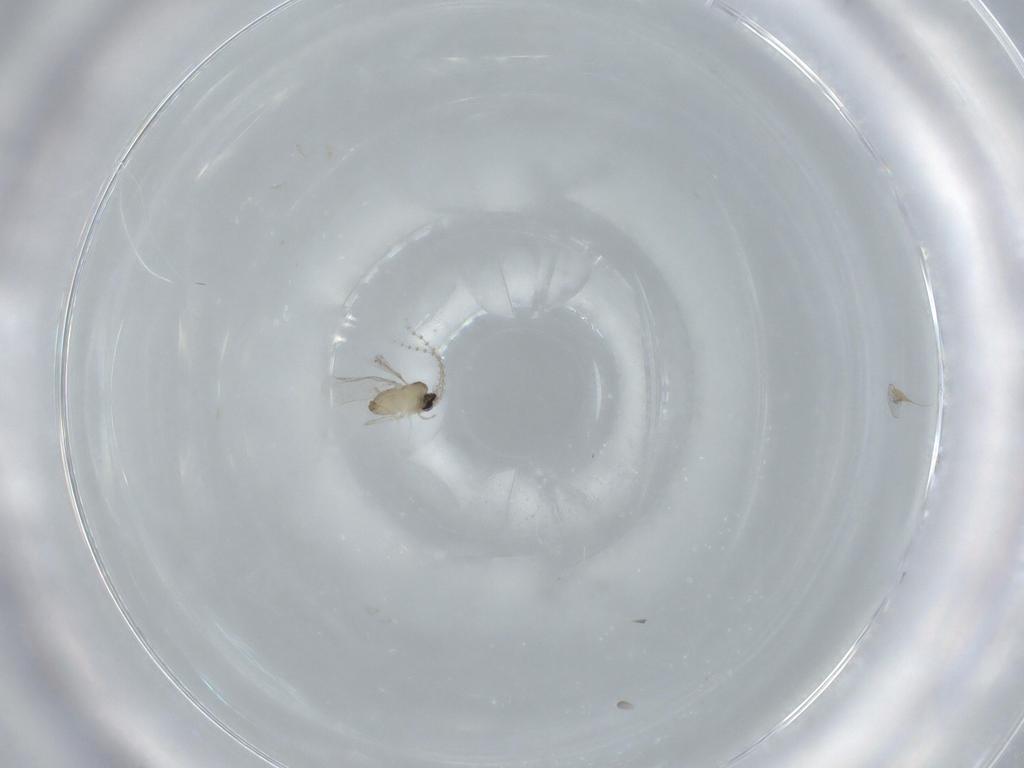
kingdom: Animalia
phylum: Arthropoda
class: Insecta
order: Diptera
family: Cecidomyiidae
